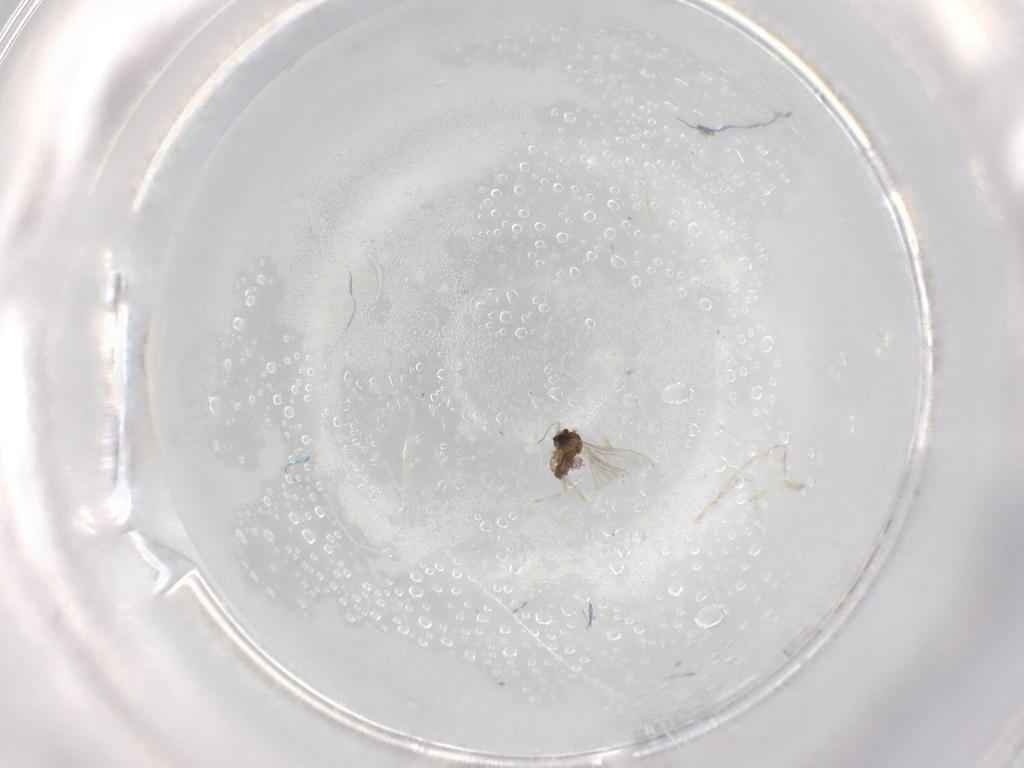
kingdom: Animalia
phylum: Arthropoda
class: Insecta
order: Diptera
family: Cecidomyiidae
